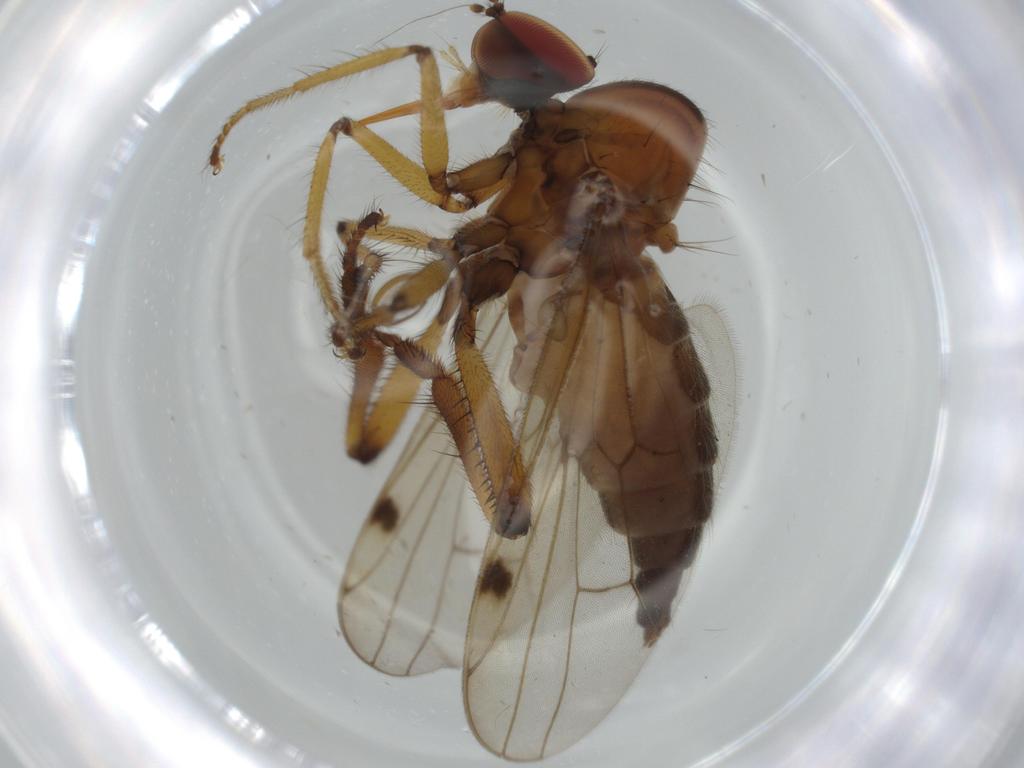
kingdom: Animalia
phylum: Arthropoda
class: Insecta
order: Diptera
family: Hybotidae
